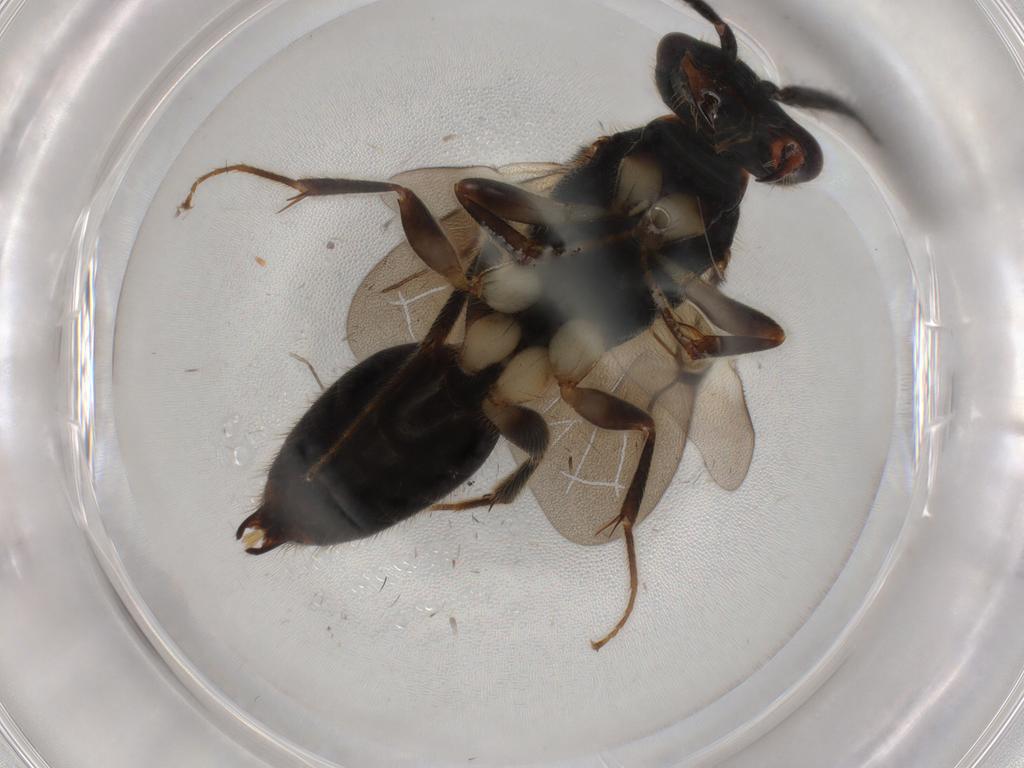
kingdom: Animalia
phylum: Arthropoda
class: Insecta
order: Hymenoptera
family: Bethylidae
